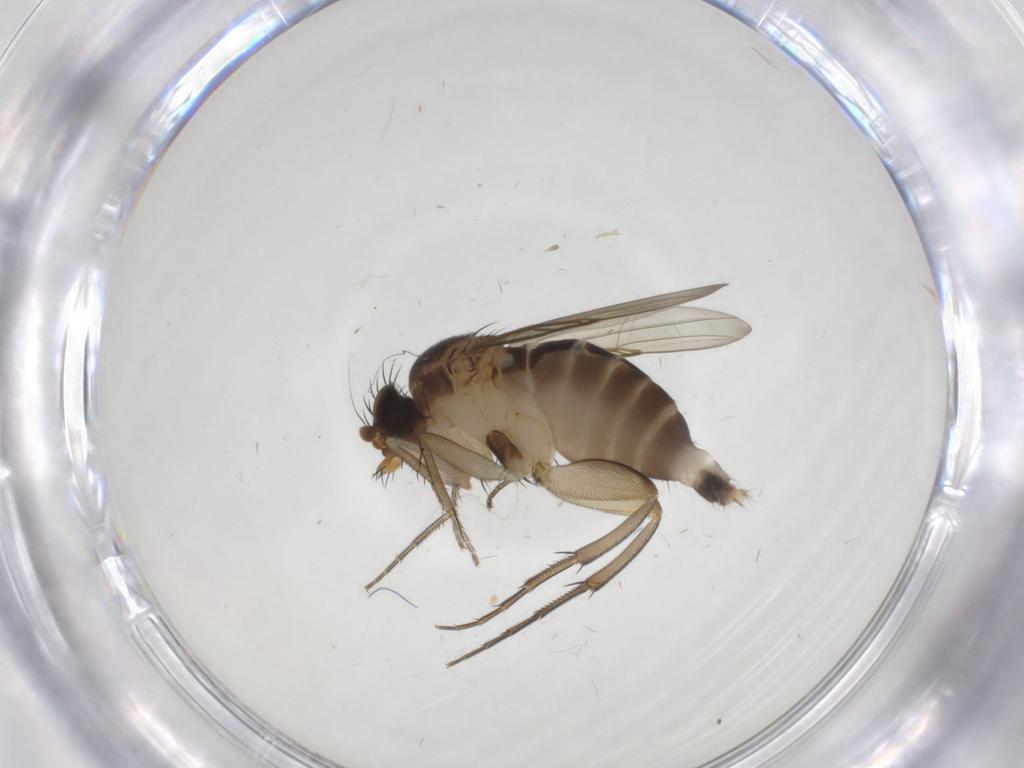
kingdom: Animalia
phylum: Arthropoda
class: Insecta
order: Diptera
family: Phoridae
